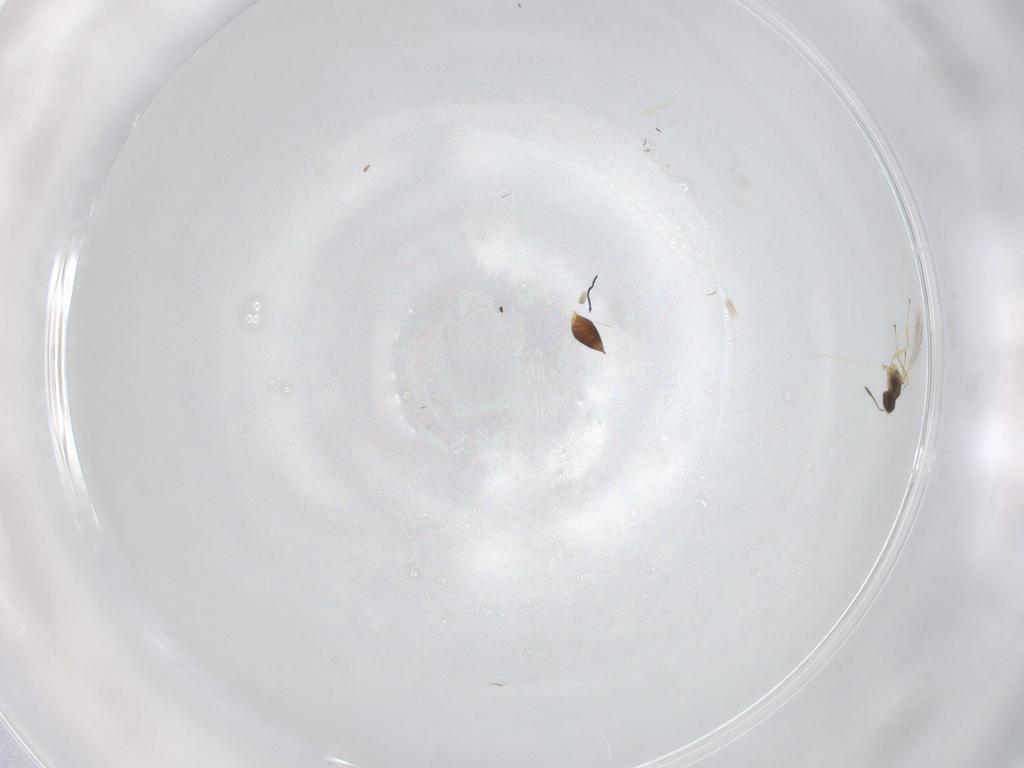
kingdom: Animalia
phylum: Arthropoda
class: Insecta
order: Hymenoptera
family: Mymaridae
